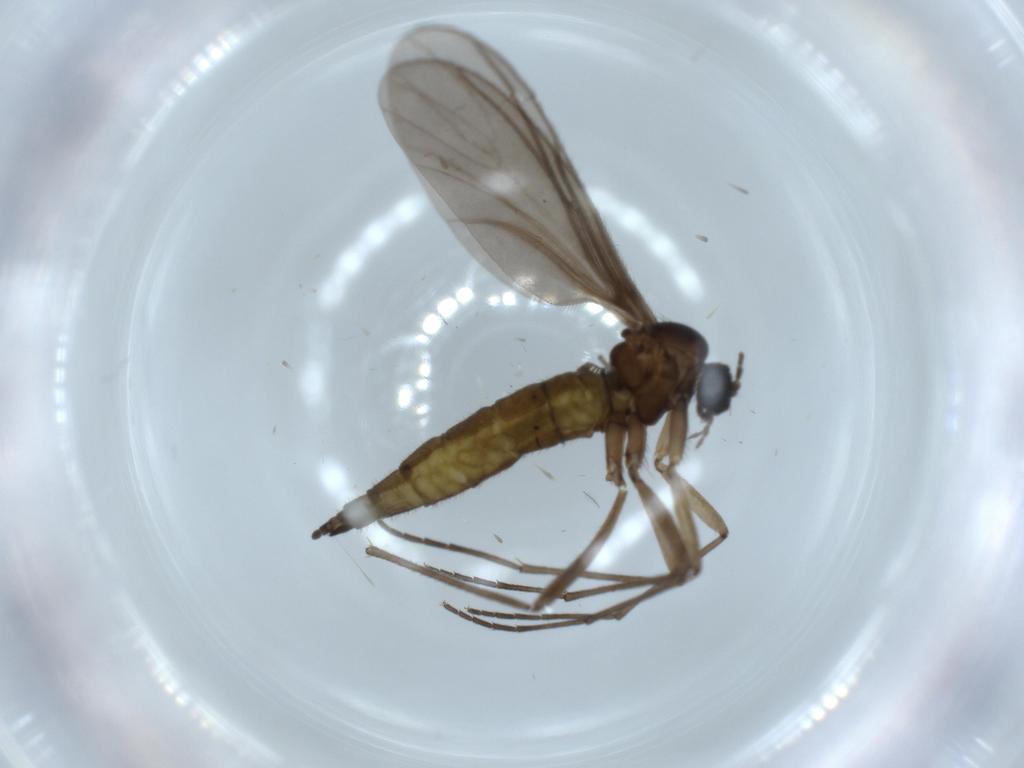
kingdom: Animalia
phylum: Arthropoda
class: Insecta
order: Diptera
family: Sciaridae
